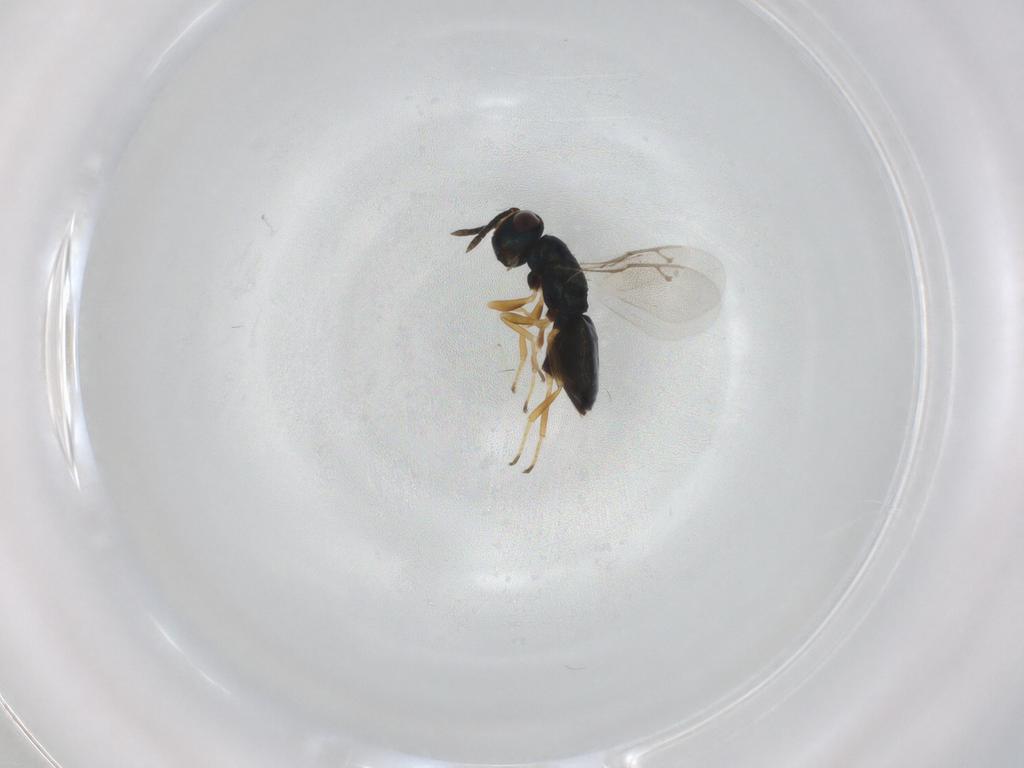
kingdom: Animalia
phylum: Arthropoda
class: Insecta
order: Hymenoptera
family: Pteromalidae
